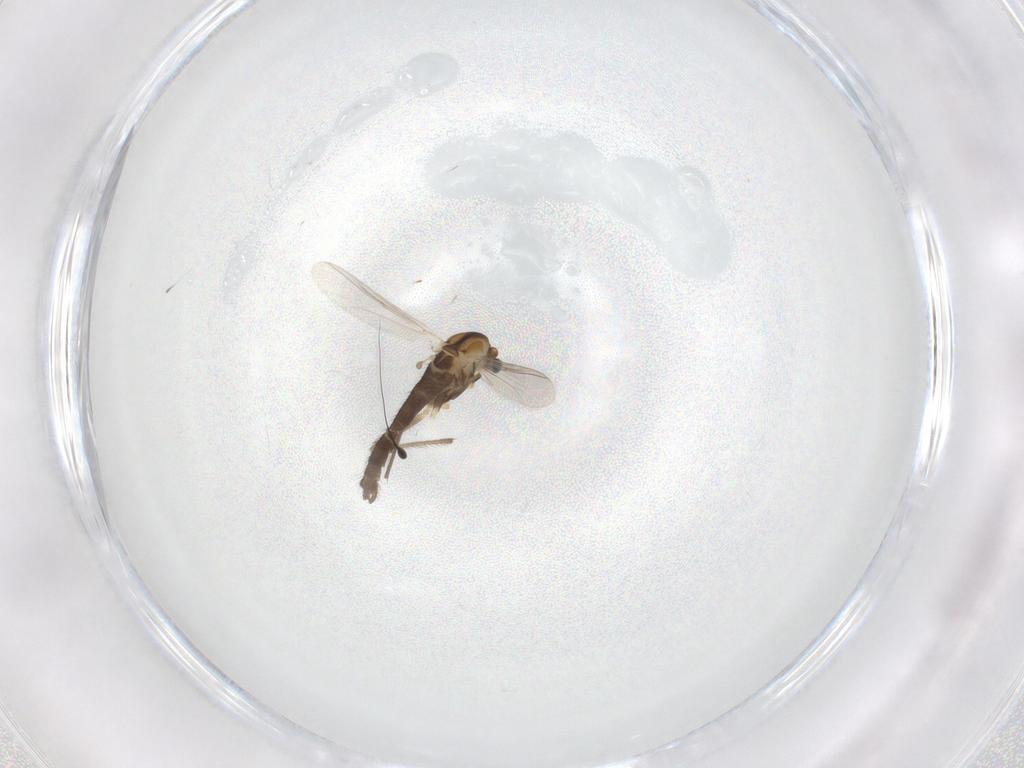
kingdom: Animalia
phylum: Arthropoda
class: Insecta
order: Diptera
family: Chironomidae
